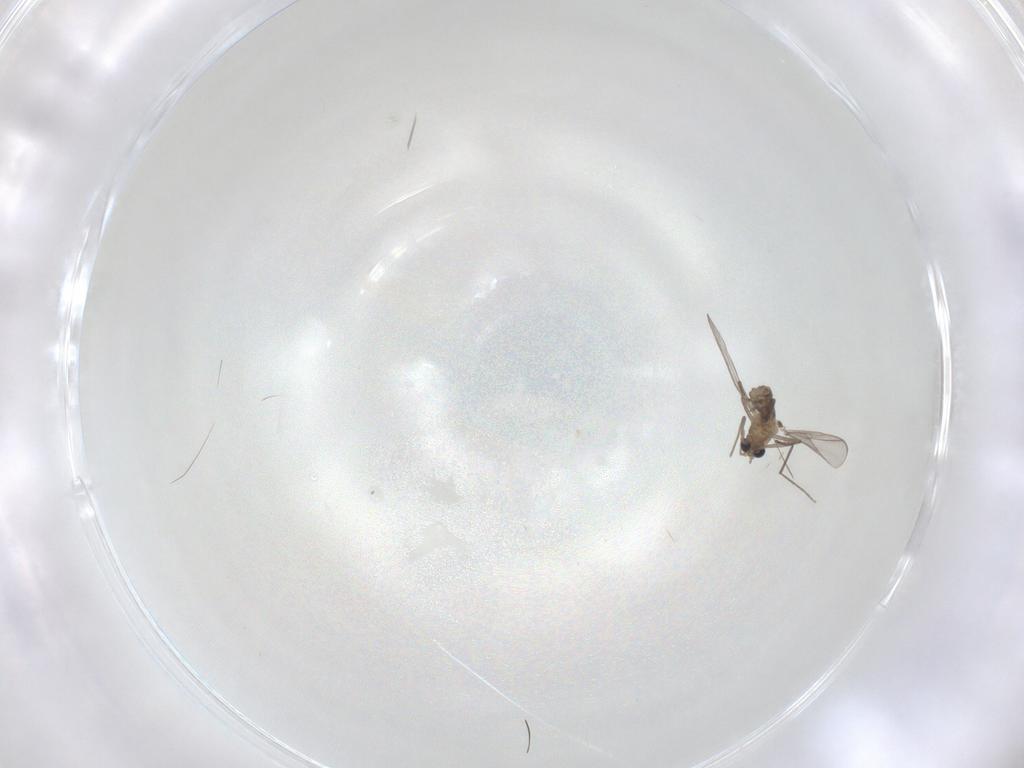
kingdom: Animalia
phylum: Arthropoda
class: Insecta
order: Diptera
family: Chironomidae
